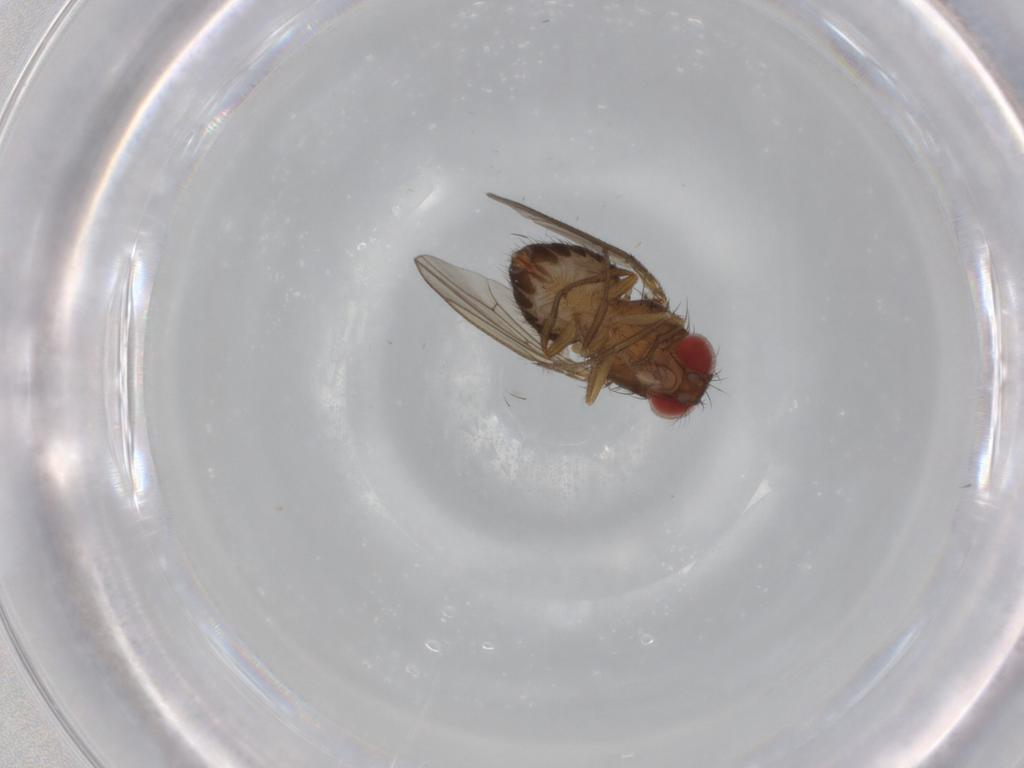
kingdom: Animalia
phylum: Arthropoda
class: Insecta
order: Diptera
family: Drosophilidae
